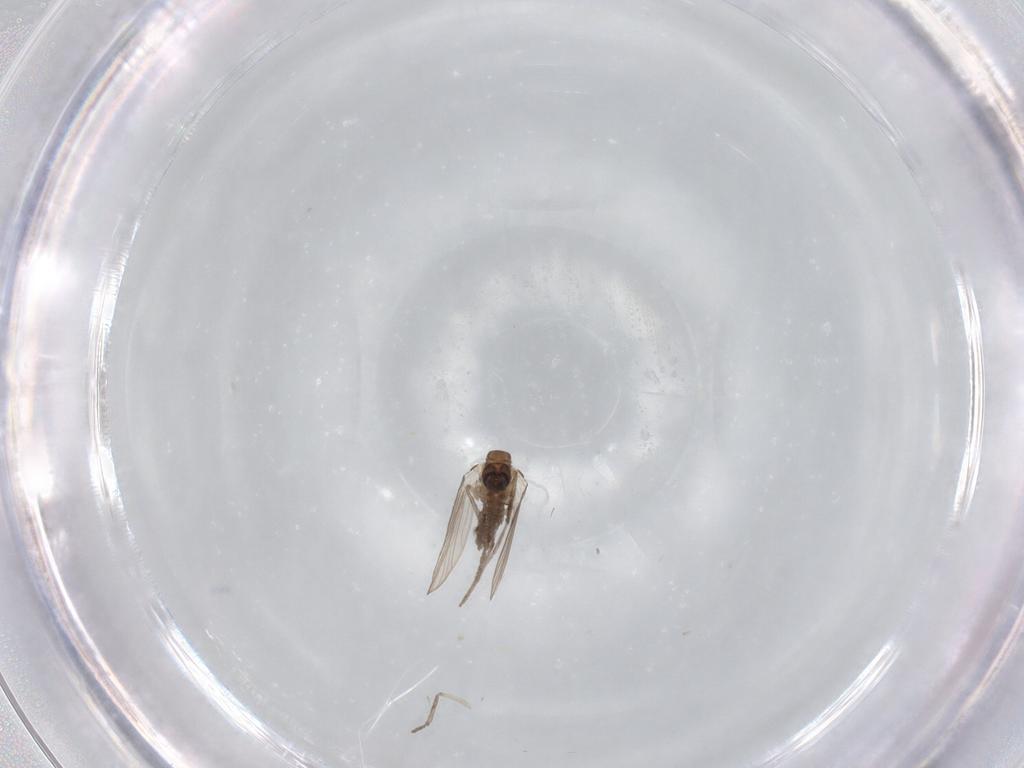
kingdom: Animalia
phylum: Arthropoda
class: Insecta
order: Diptera
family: Psychodidae
